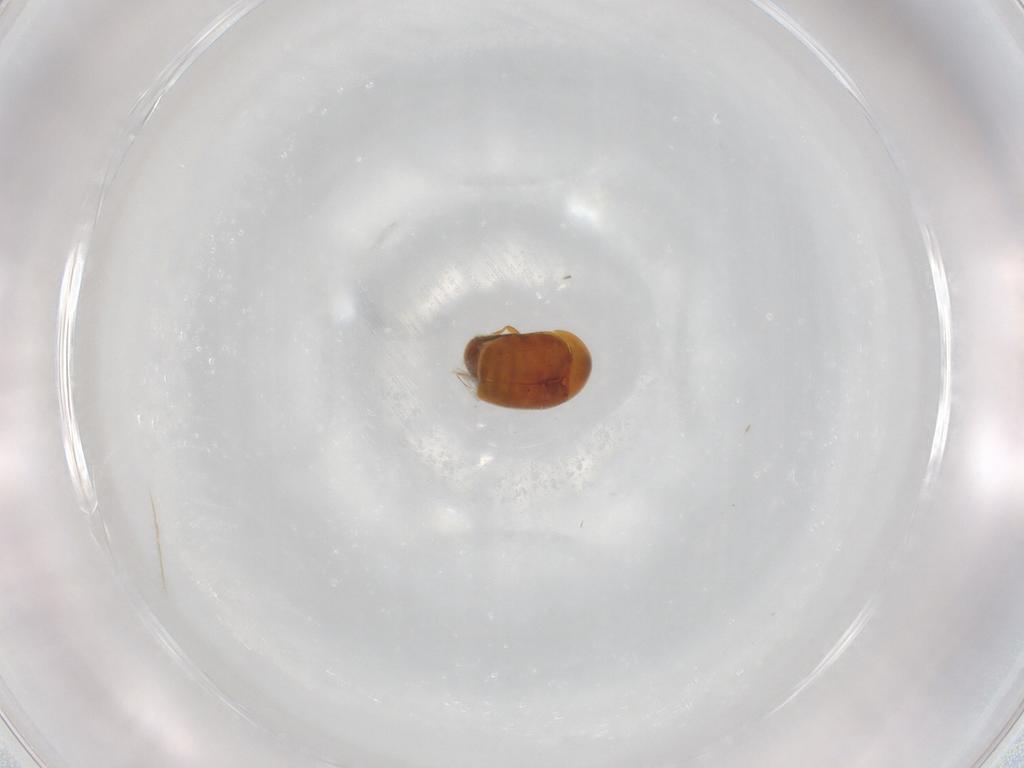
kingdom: Animalia
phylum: Arthropoda
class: Insecta
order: Coleoptera
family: Corylophidae
